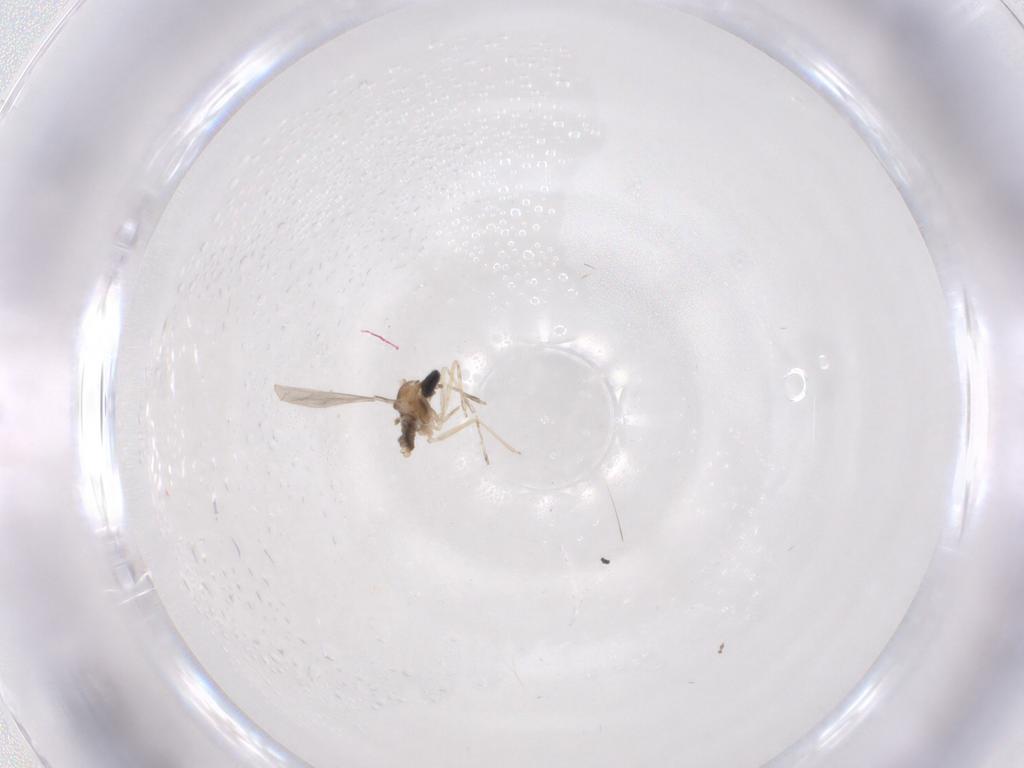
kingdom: Animalia
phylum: Arthropoda
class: Insecta
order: Diptera
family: Cecidomyiidae
